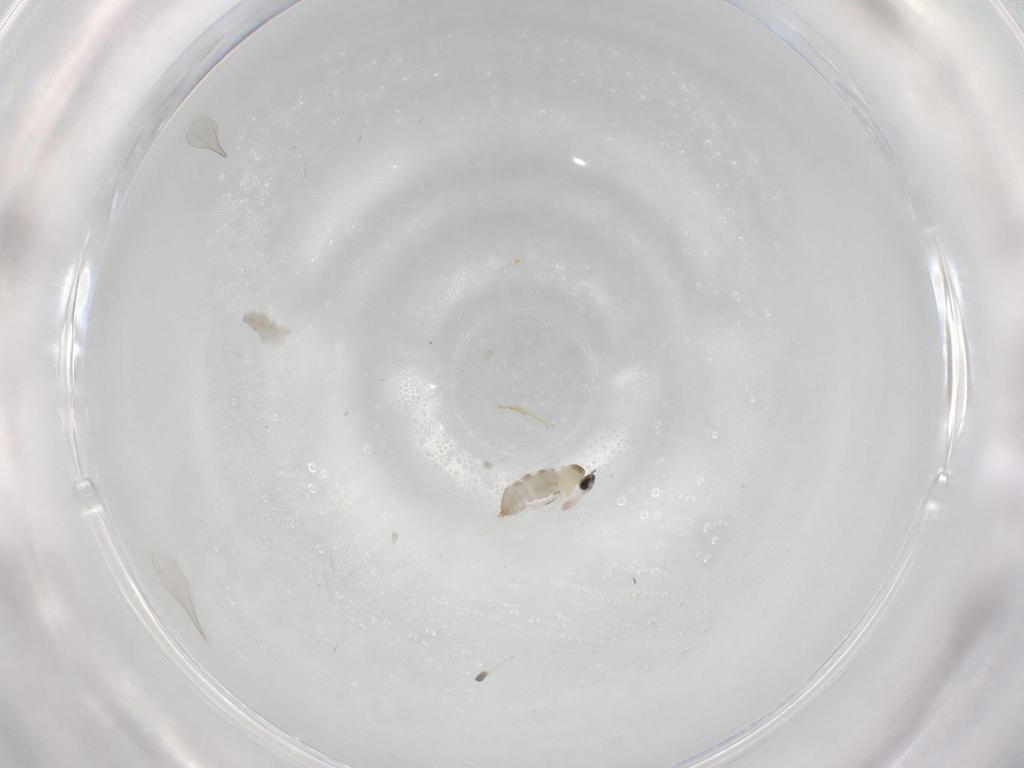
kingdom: Animalia
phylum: Arthropoda
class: Insecta
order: Diptera
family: Cecidomyiidae
